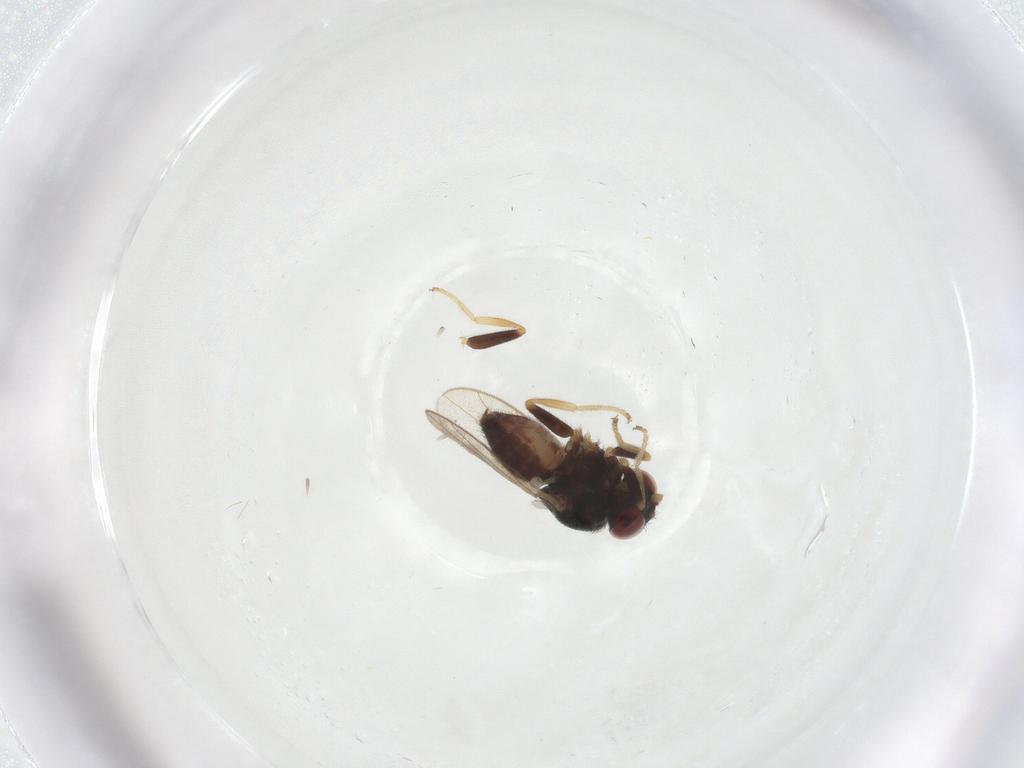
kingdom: Animalia
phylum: Arthropoda
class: Insecta
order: Diptera
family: Chloropidae
